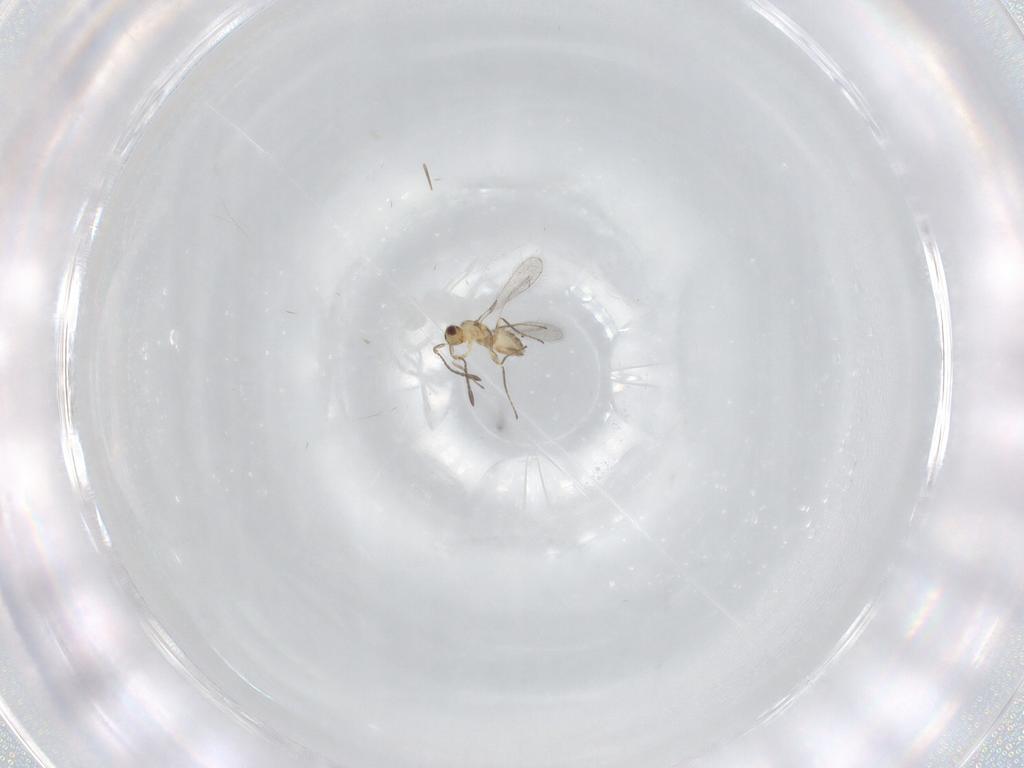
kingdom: Animalia
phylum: Arthropoda
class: Insecta
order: Hymenoptera
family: Mymaridae
